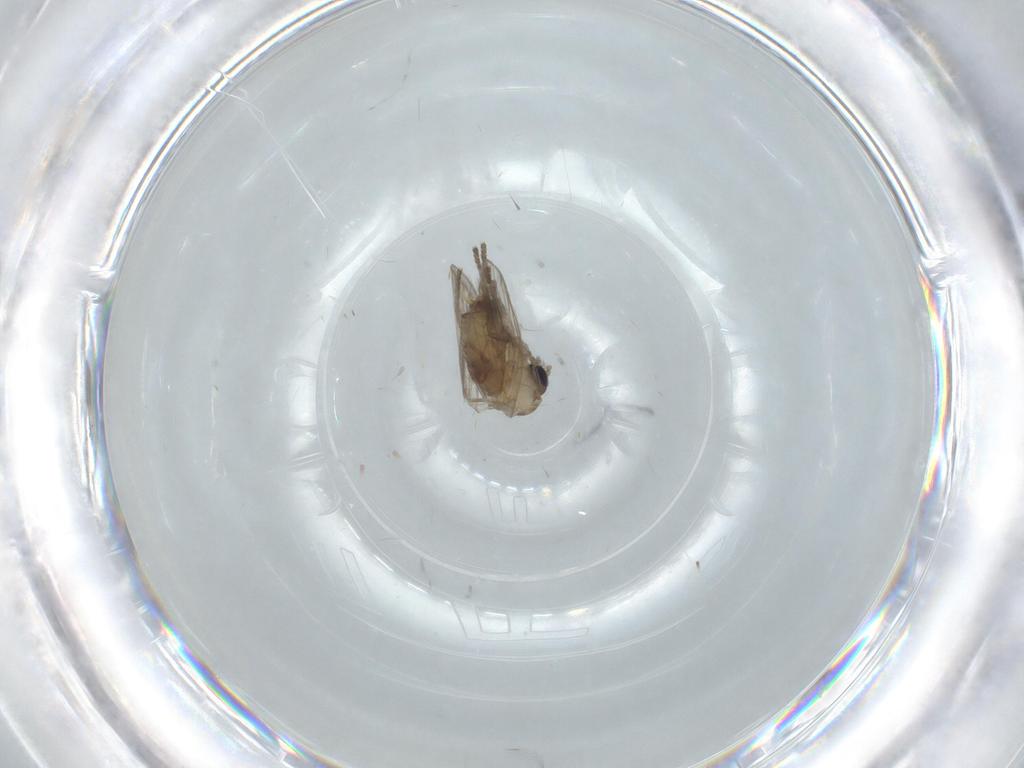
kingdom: Animalia
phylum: Arthropoda
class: Insecta
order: Diptera
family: Psychodidae
